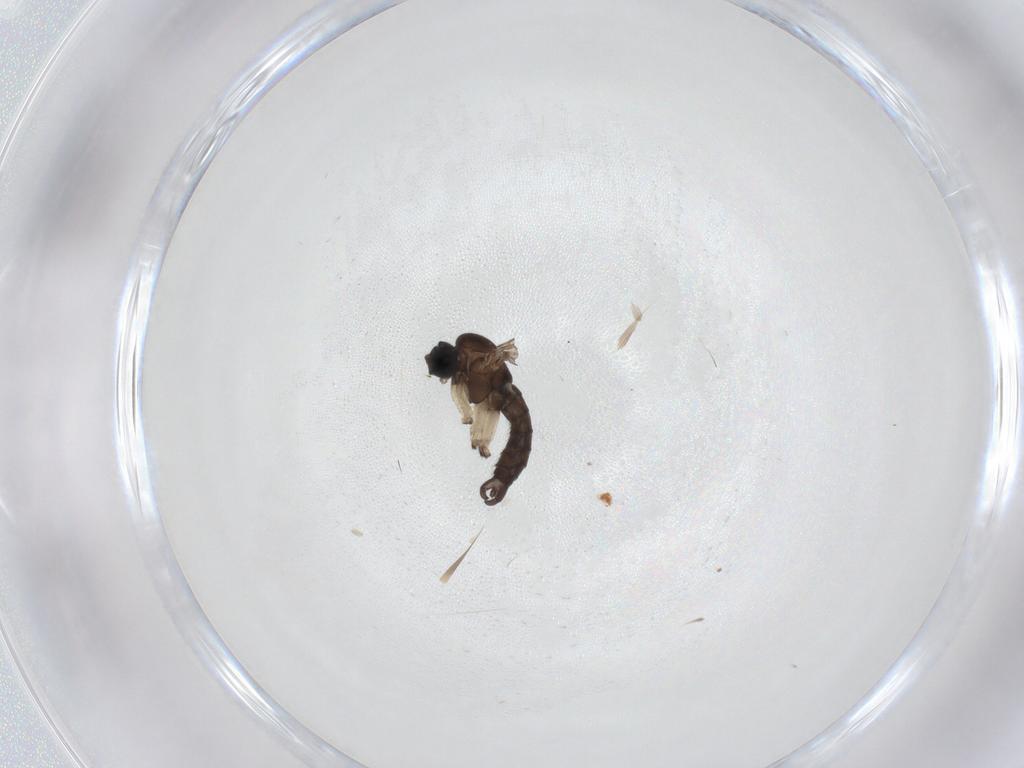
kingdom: Animalia
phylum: Arthropoda
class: Insecta
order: Diptera
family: Sciaridae
